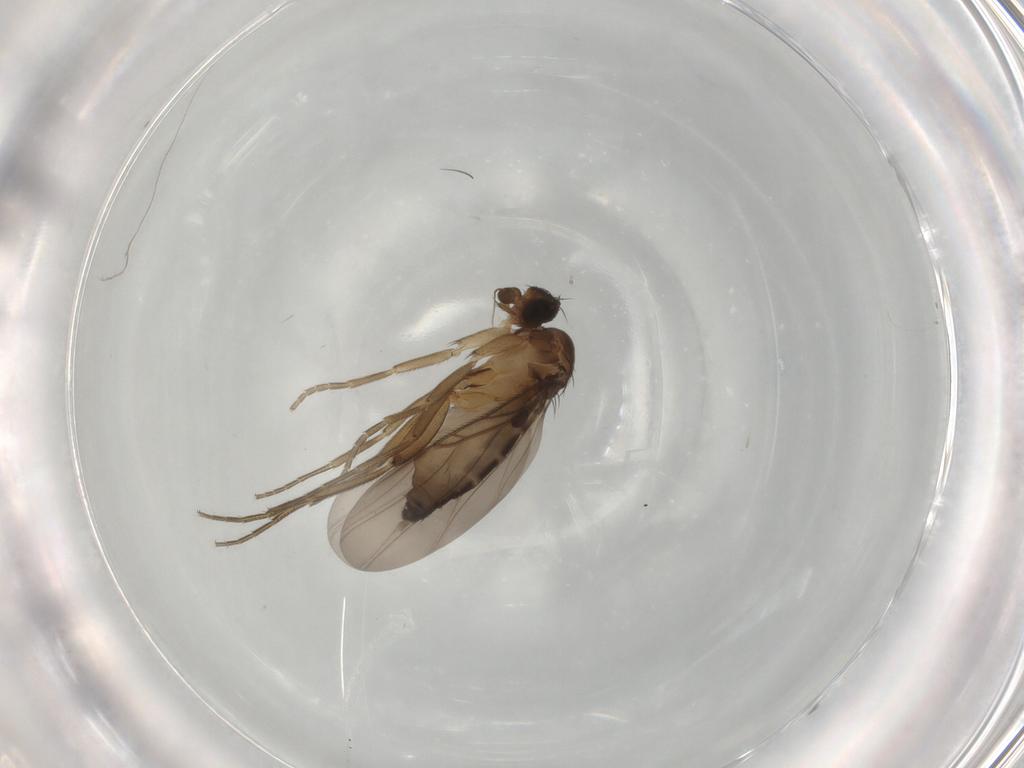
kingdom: Animalia
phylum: Arthropoda
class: Insecta
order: Diptera
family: Phoridae
